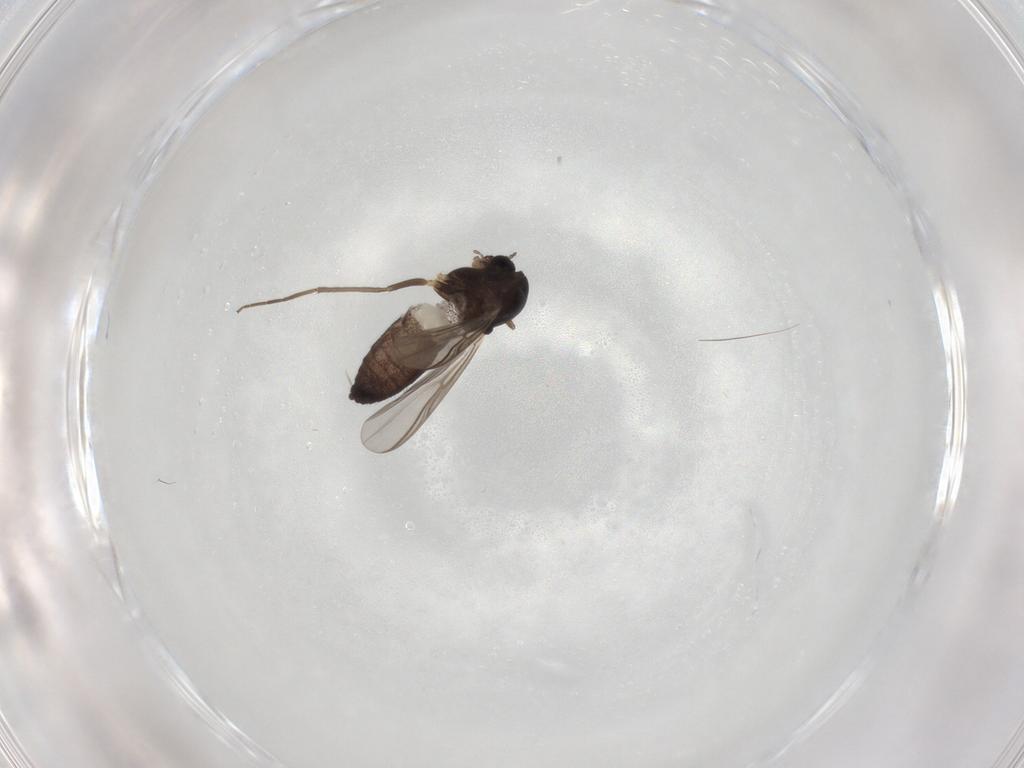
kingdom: Animalia
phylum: Arthropoda
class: Insecta
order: Diptera
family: Chironomidae
